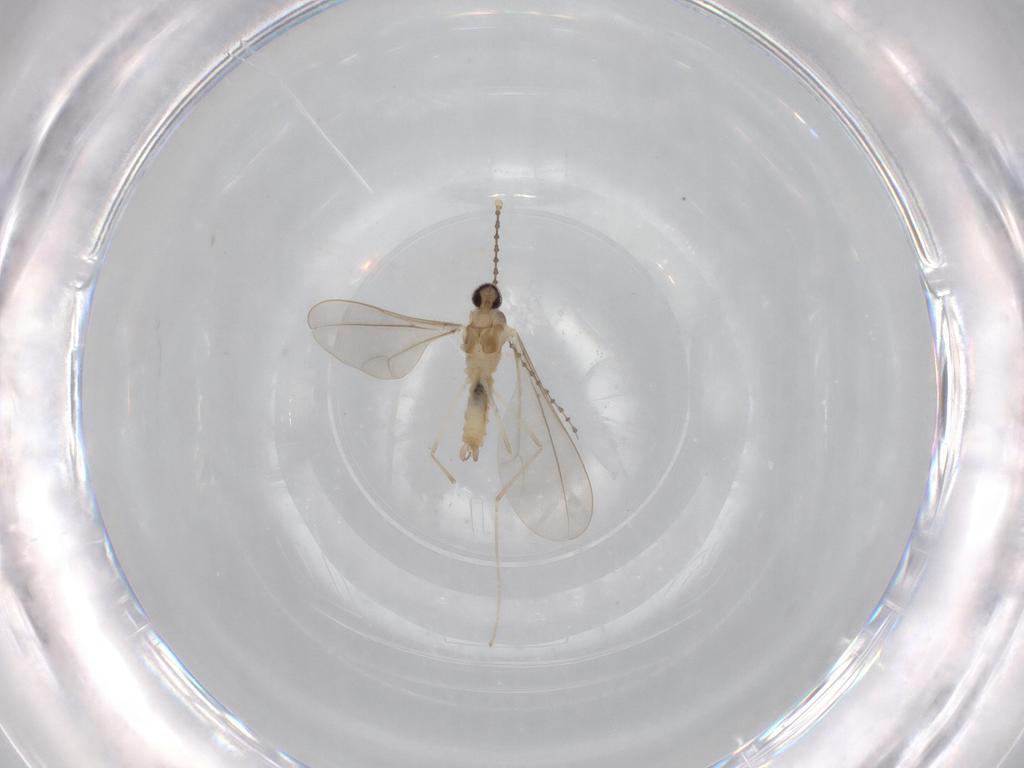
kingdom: Animalia
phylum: Arthropoda
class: Insecta
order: Diptera
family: Cecidomyiidae
